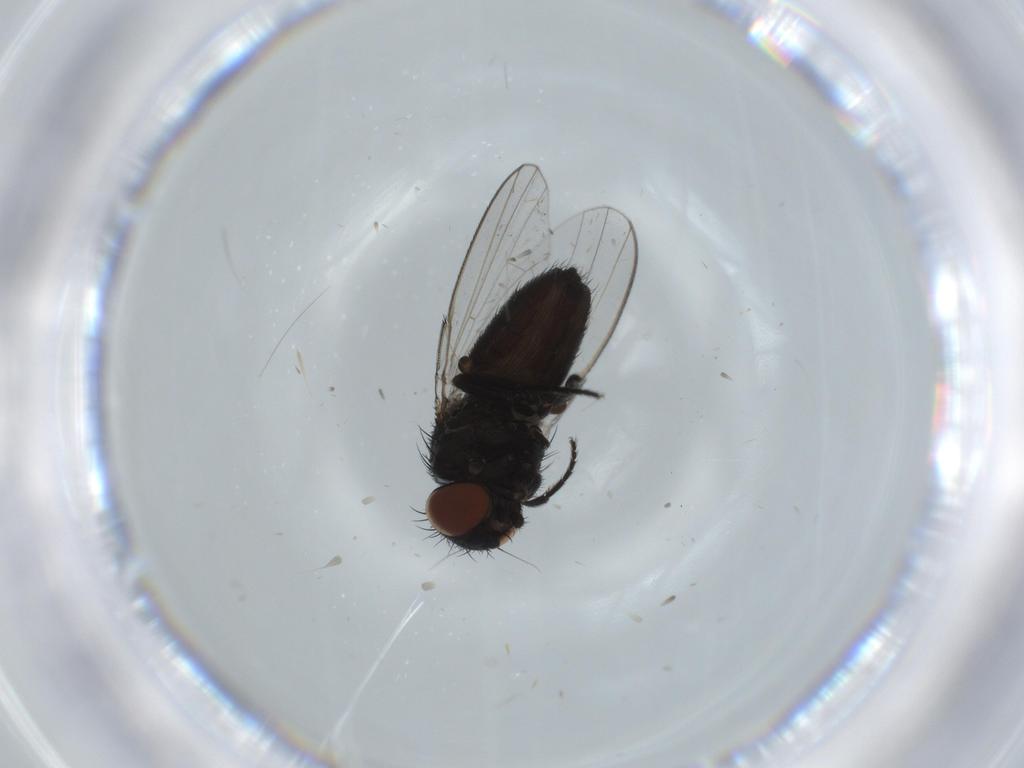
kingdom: Animalia
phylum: Arthropoda
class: Insecta
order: Diptera
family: Milichiidae
